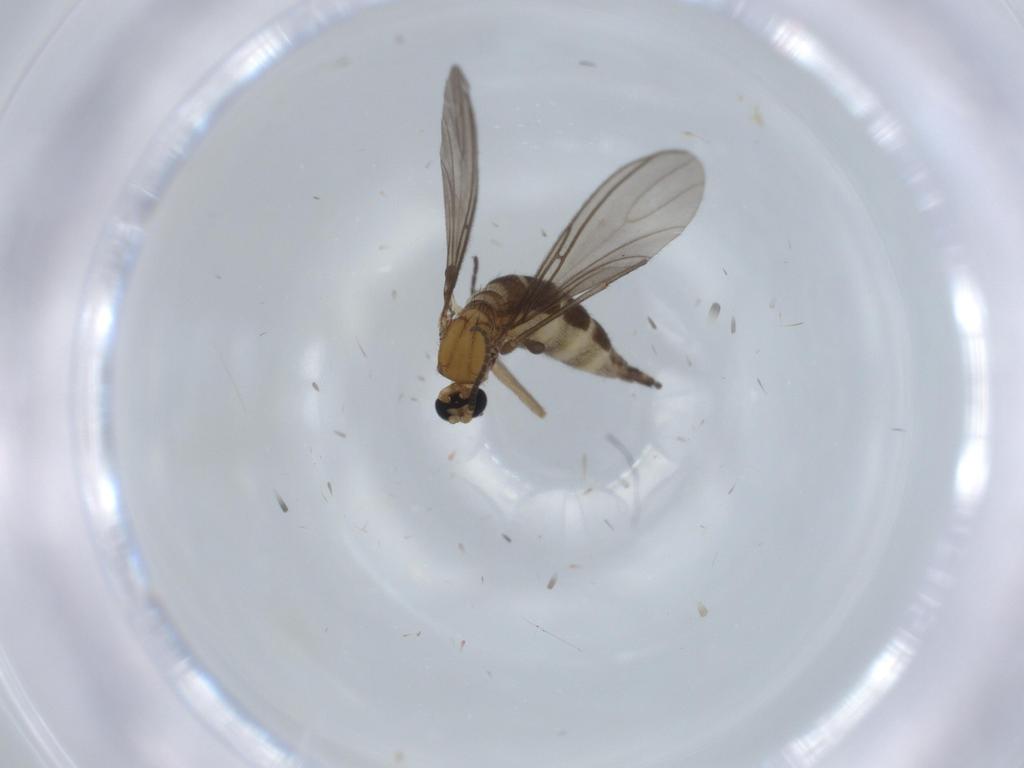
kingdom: Animalia
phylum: Arthropoda
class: Insecta
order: Diptera
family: Sciaridae
